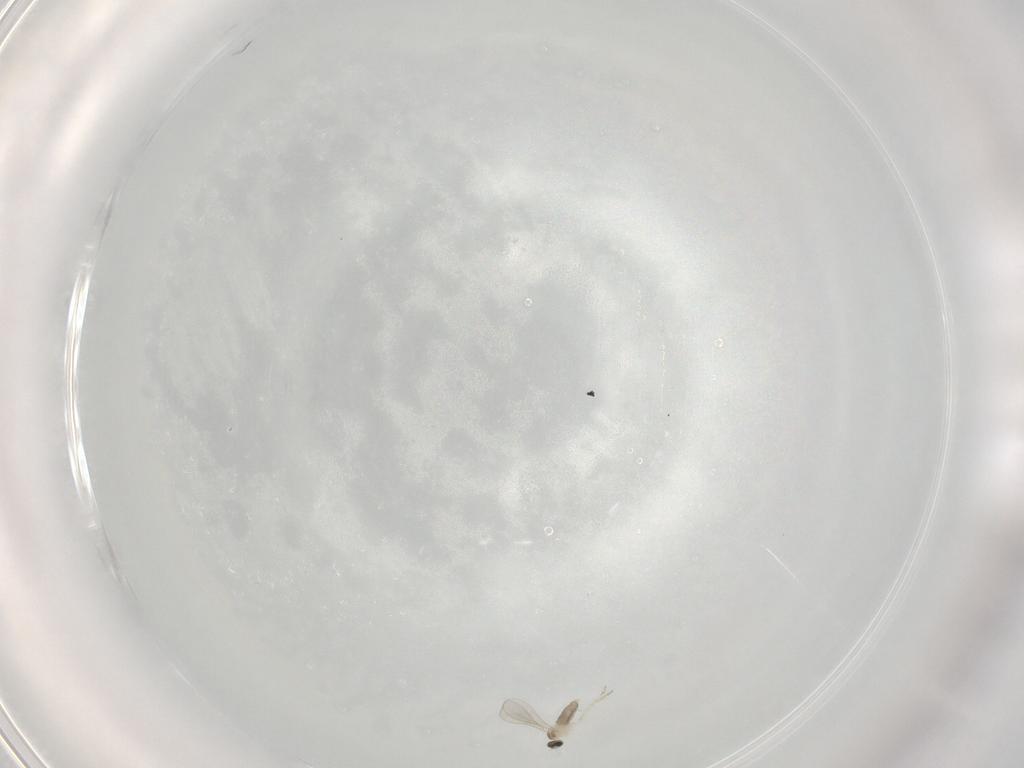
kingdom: Animalia
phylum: Arthropoda
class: Insecta
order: Diptera
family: Cecidomyiidae
